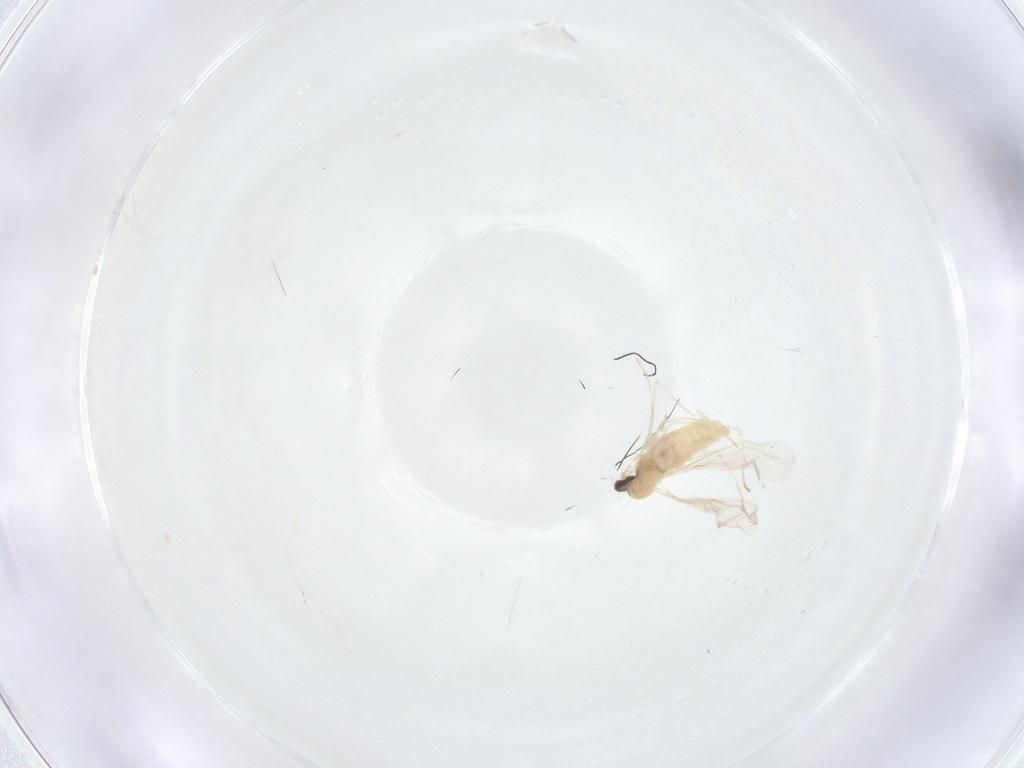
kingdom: Animalia
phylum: Arthropoda
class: Insecta
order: Diptera
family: Cecidomyiidae
